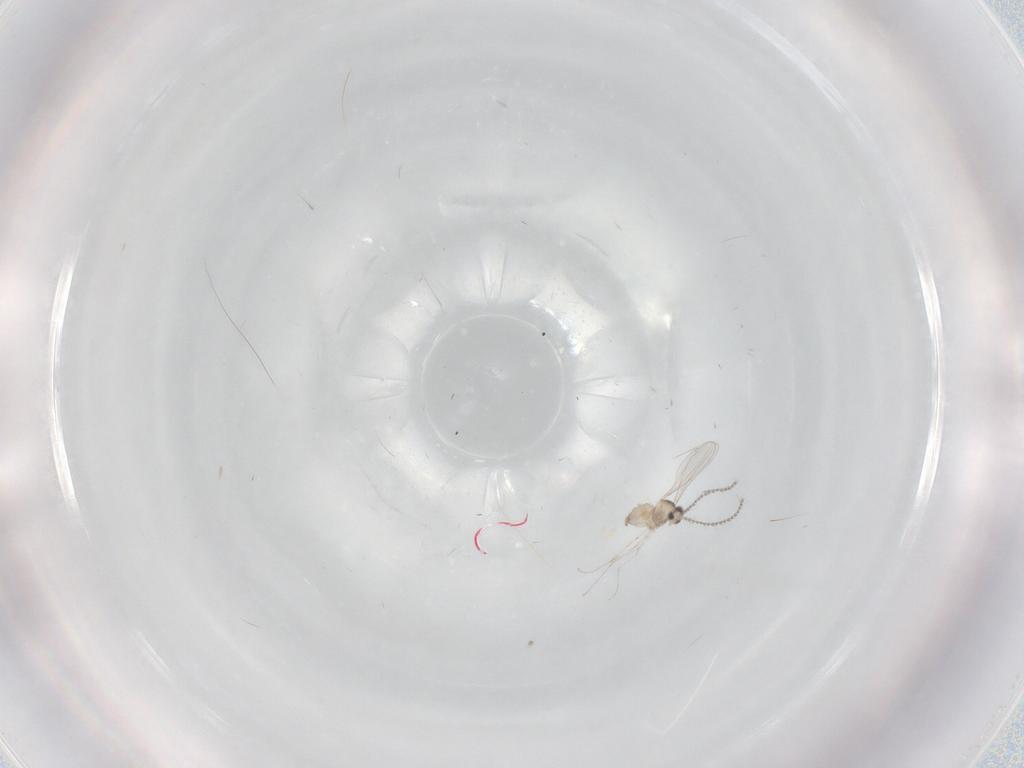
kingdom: Animalia
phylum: Arthropoda
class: Insecta
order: Diptera
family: Cecidomyiidae
